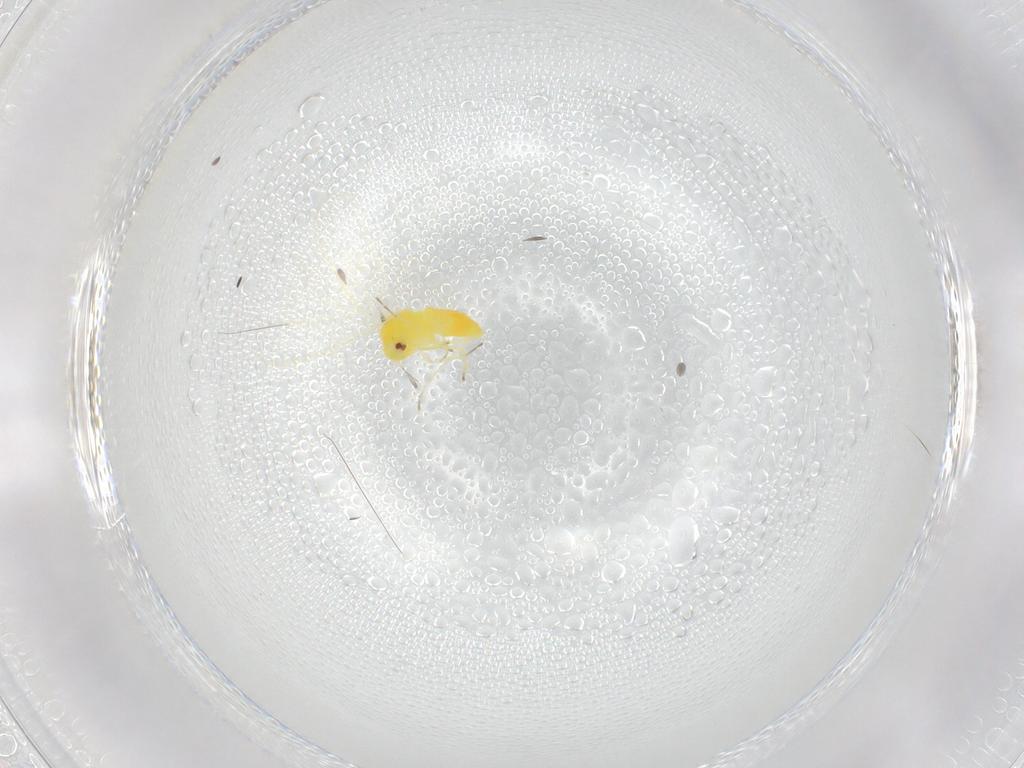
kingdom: Animalia
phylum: Arthropoda
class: Insecta
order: Hemiptera
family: Aleyrodidae
